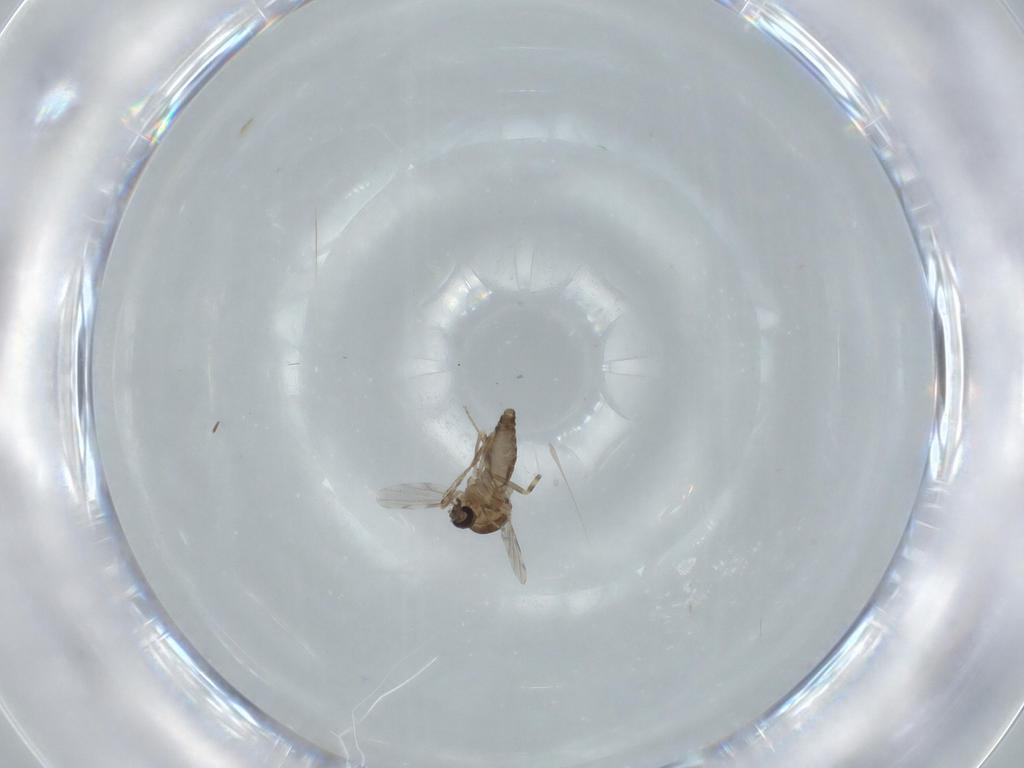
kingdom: Animalia
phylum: Arthropoda
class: Insecta
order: Diptera
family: Ceratopogonidae
